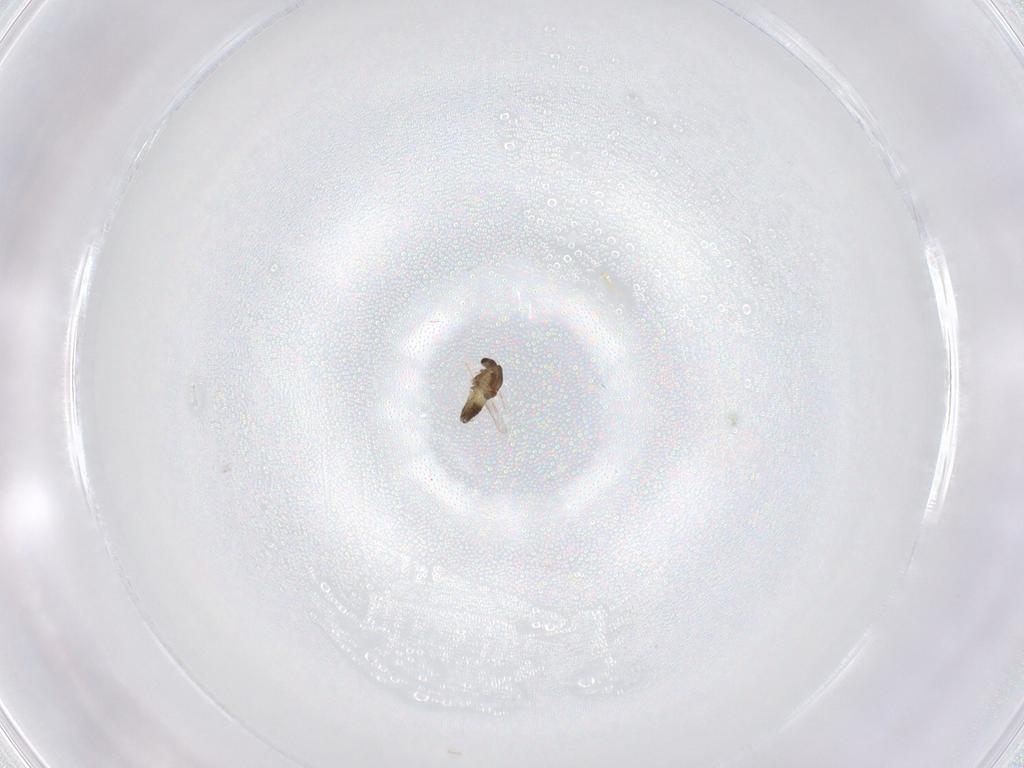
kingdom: Animalia
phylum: Arthropoda
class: Insecta
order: Diptera
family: Chironomidae
